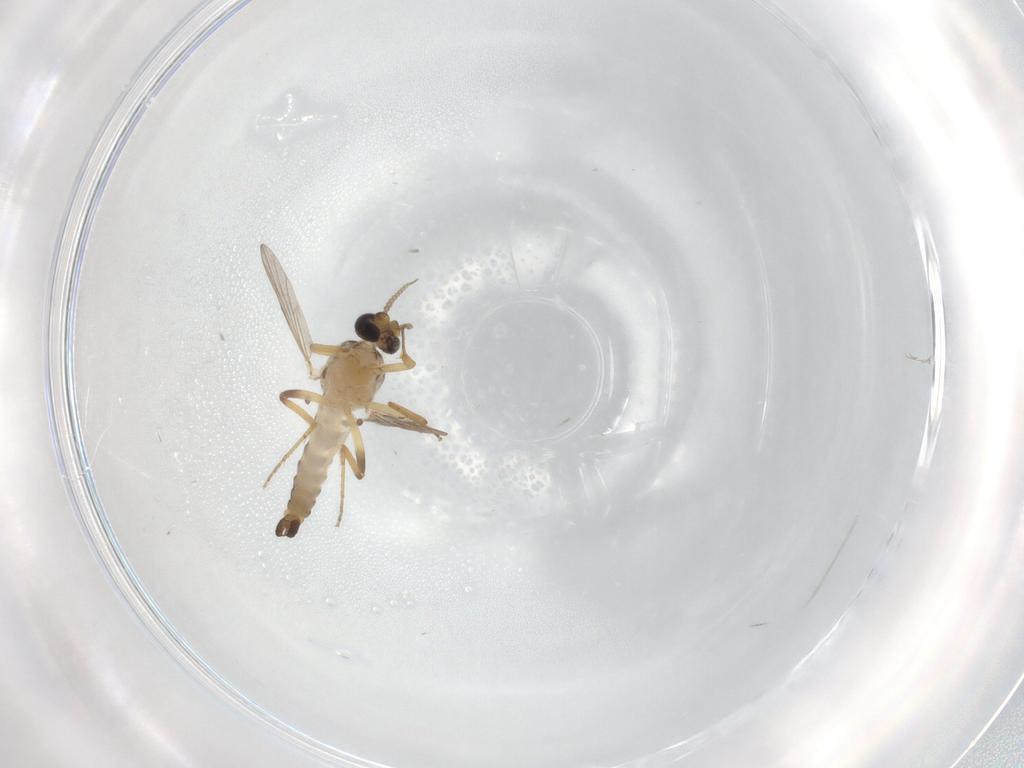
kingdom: Animalia
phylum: Arthropoda
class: Insecta
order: Diptera
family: Ceratopogonidae
